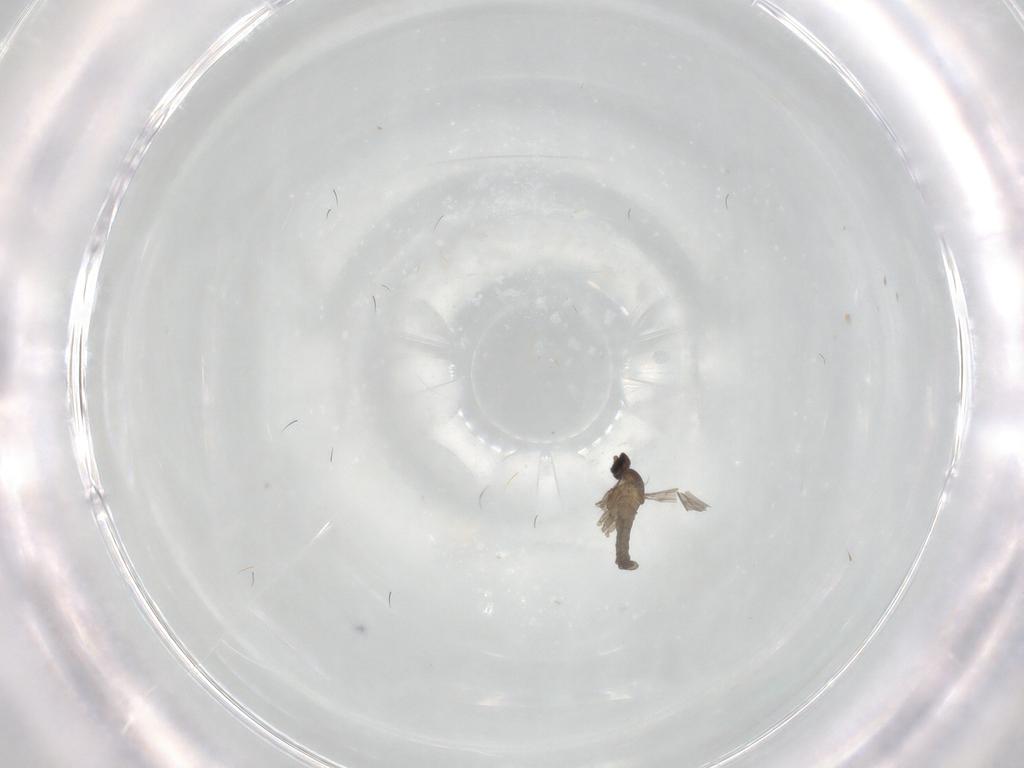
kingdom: Animalia
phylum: Arthropoda
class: Insecta
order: Diptera
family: Cecidomyiidae
